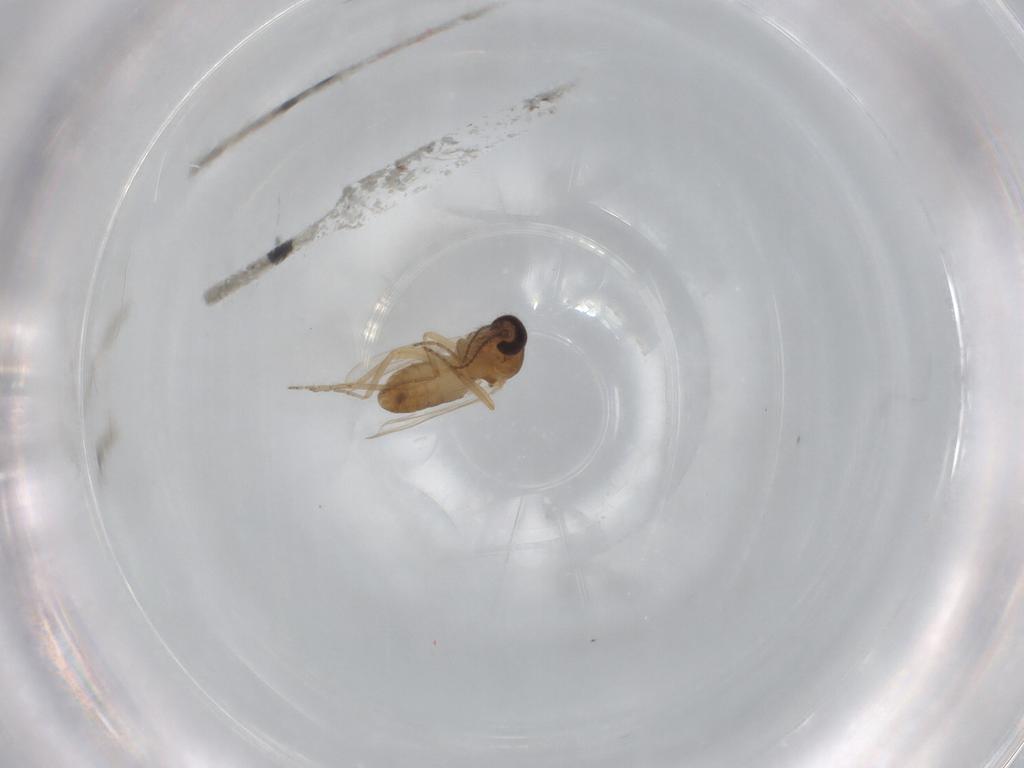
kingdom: Animalia
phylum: Arthropoda
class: Insecta
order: Diptera
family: Ceratopogonidae
